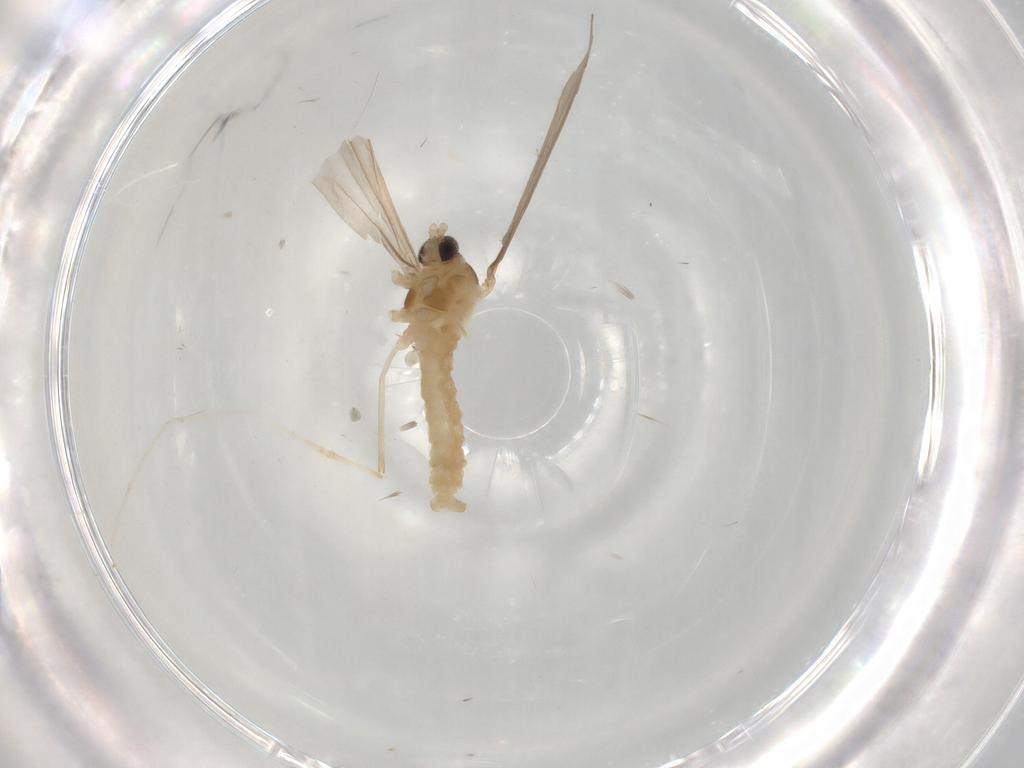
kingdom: Animalia
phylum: Arthropoda
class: Insecta
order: Diptera
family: Cecidomyiidae
